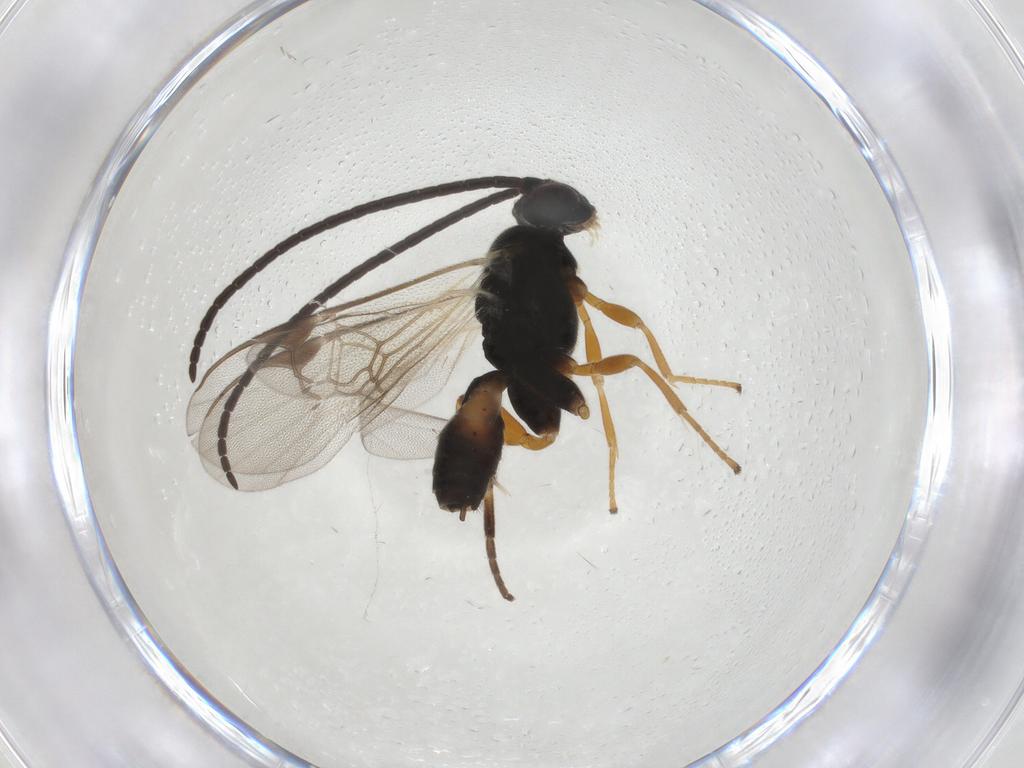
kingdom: Animalia
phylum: Arthropoda
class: Insecta
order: Hymenoptera
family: Braconidae
